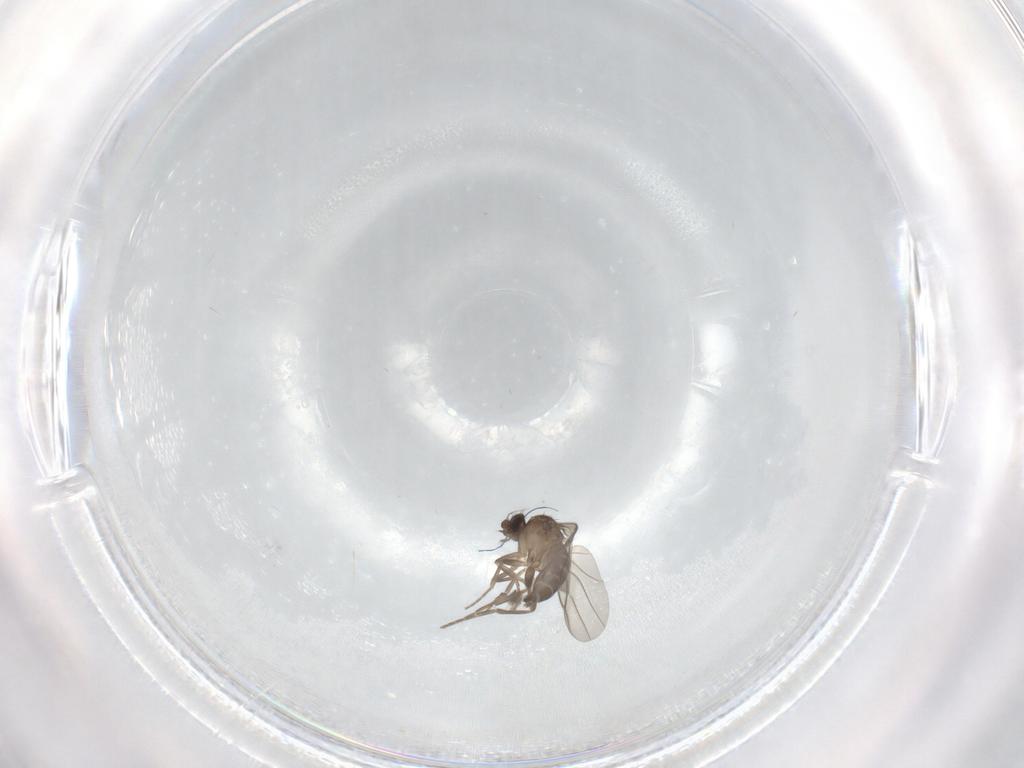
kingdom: Animalia
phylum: Arthropoda
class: Insecta
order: Diptera
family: Phoridae
